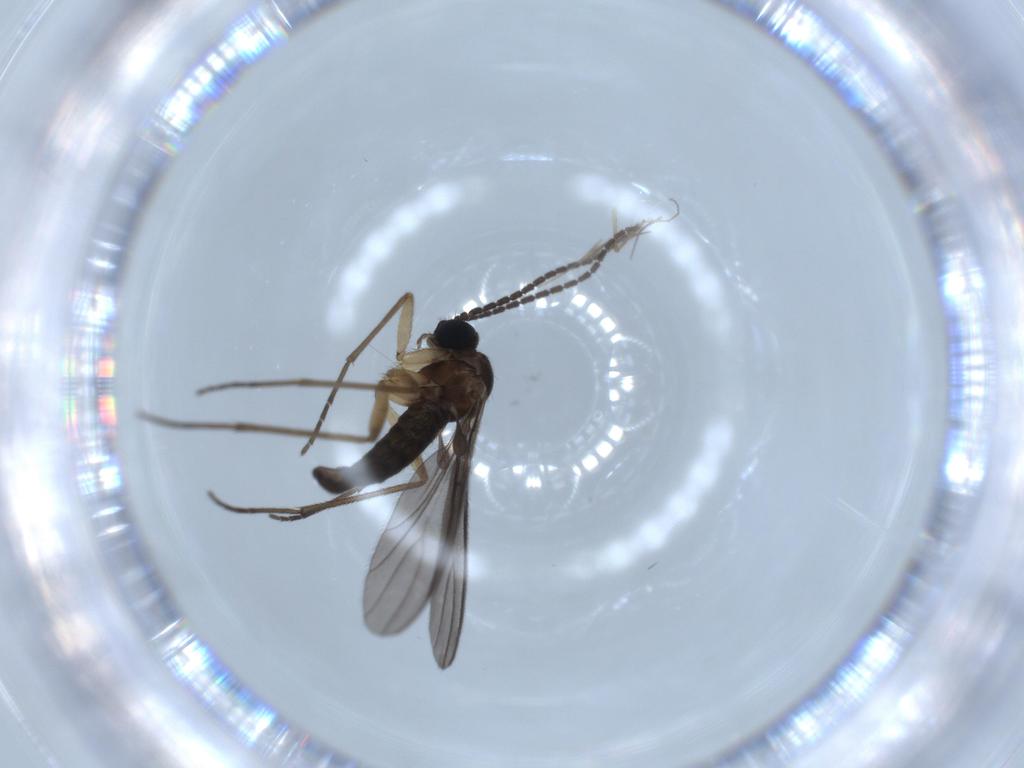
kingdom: Animalia
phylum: Arthropoda
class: Insecta
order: Diptera
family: Sciaridae
